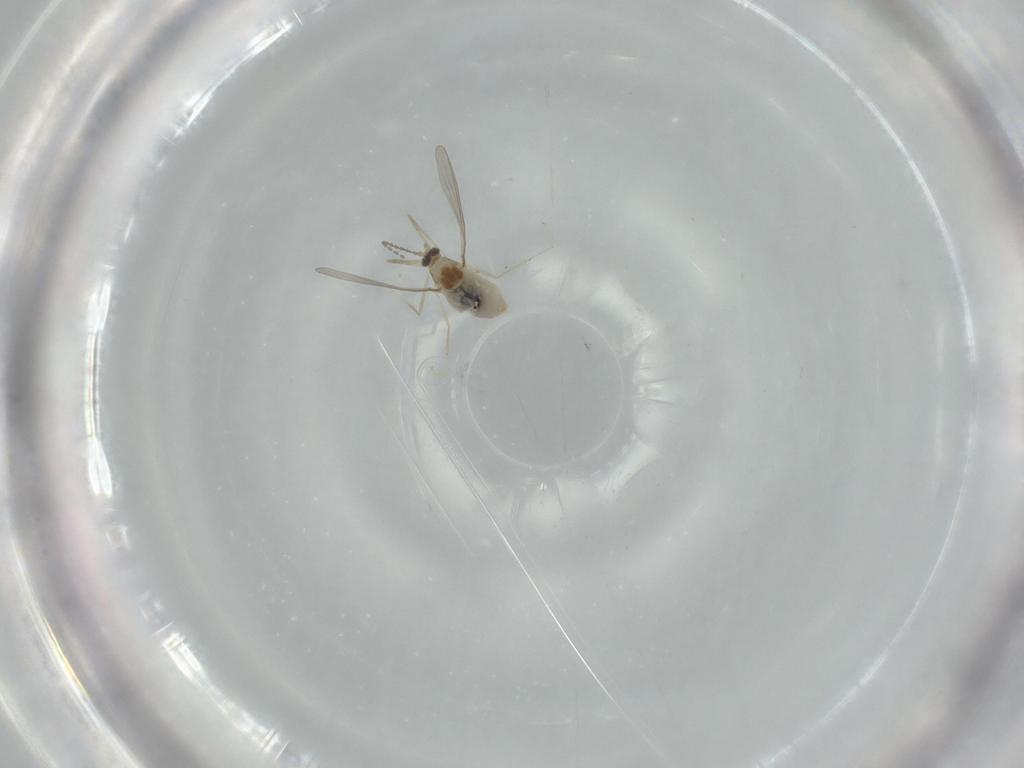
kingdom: Animalia
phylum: Arthropoda
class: Insecta
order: Diptera
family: Cecidomyiidae
